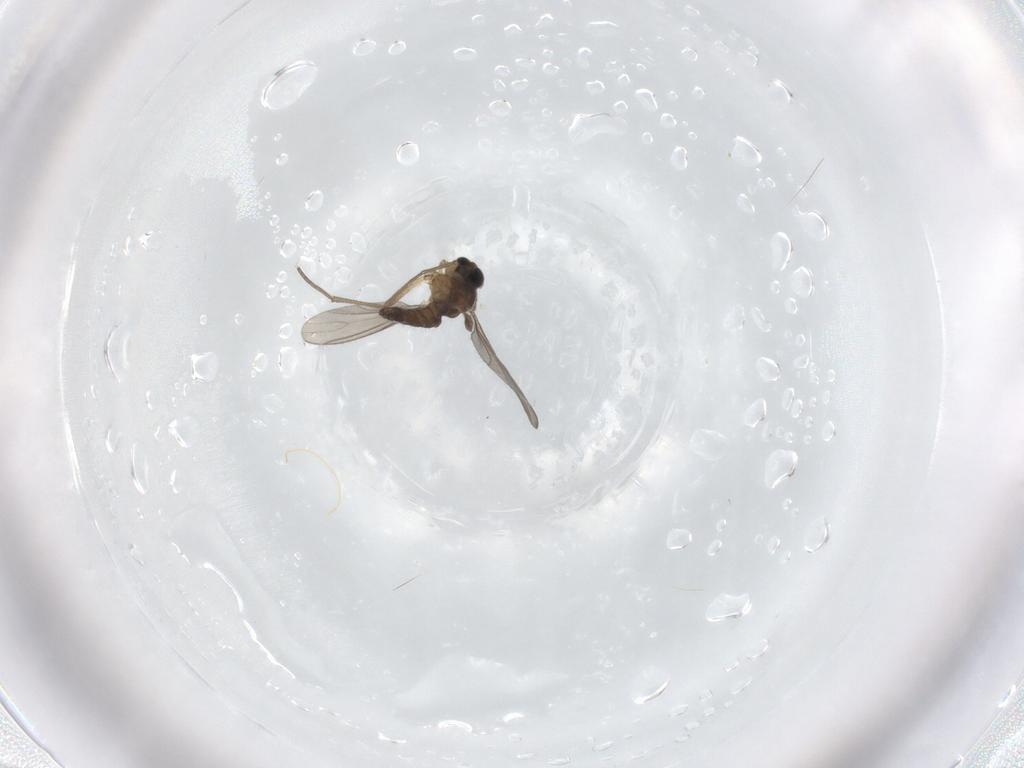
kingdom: Animalia
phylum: Arthropoda
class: Insecta
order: Diptera
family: Sciaridae
